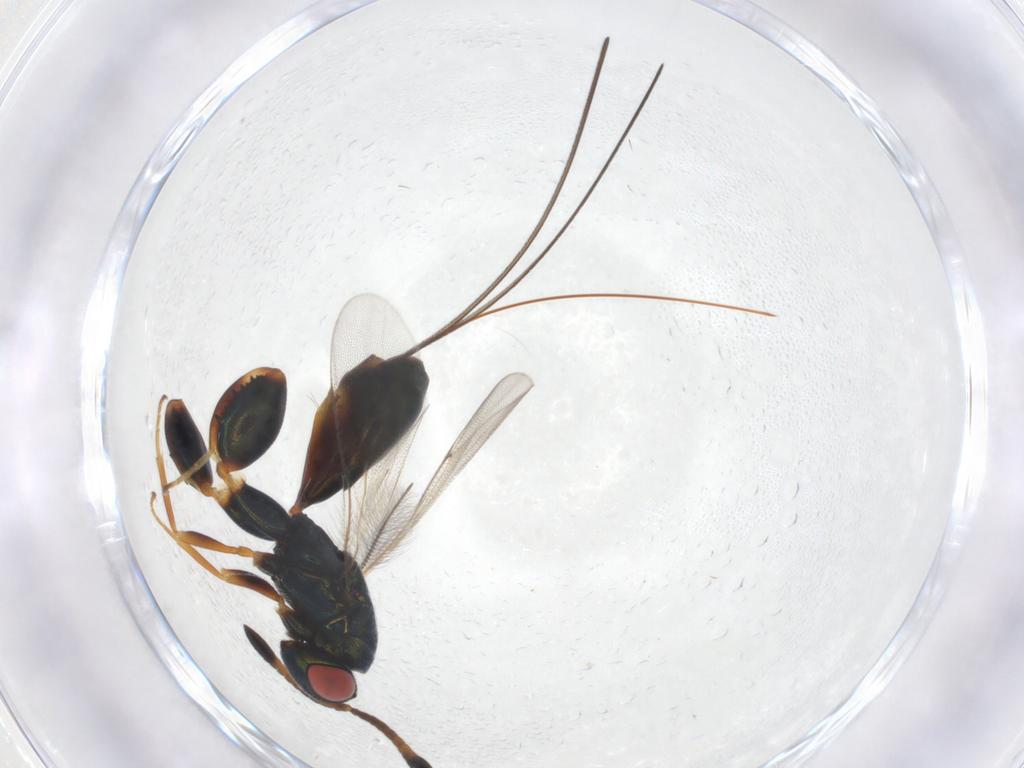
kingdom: Animalia
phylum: Arthropoda
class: Insecta
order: Hymenoptera
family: Torymidae
